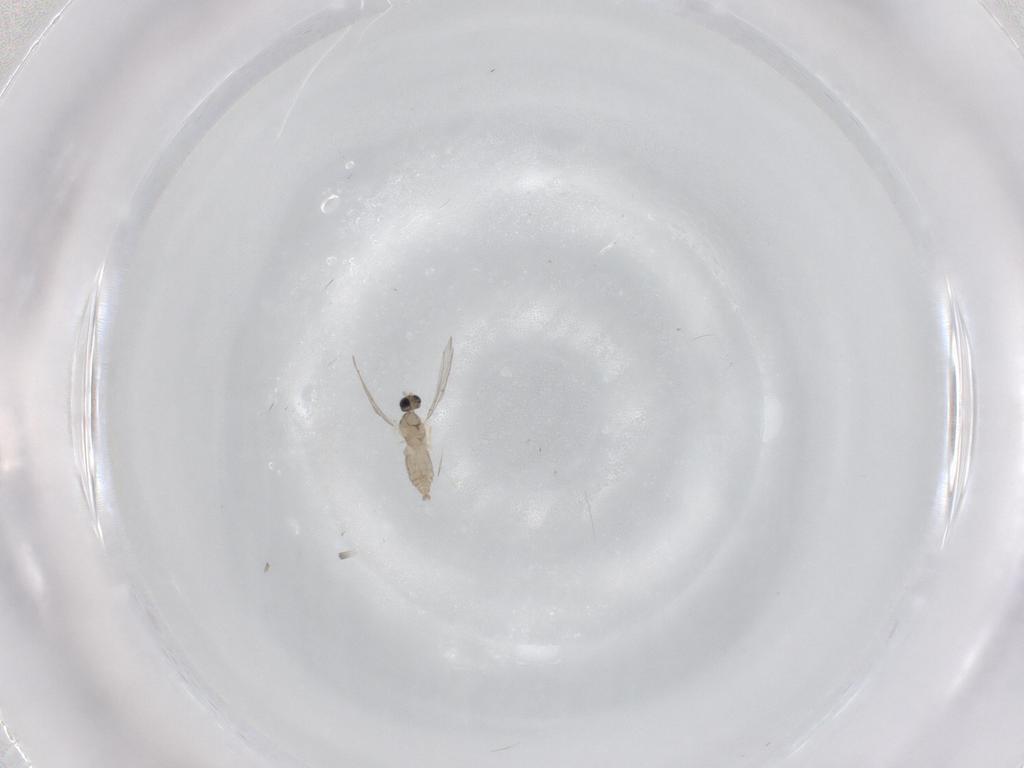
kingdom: Animalia
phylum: Arthropoda
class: Insecta
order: Diptera
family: Cecidomyiidae
